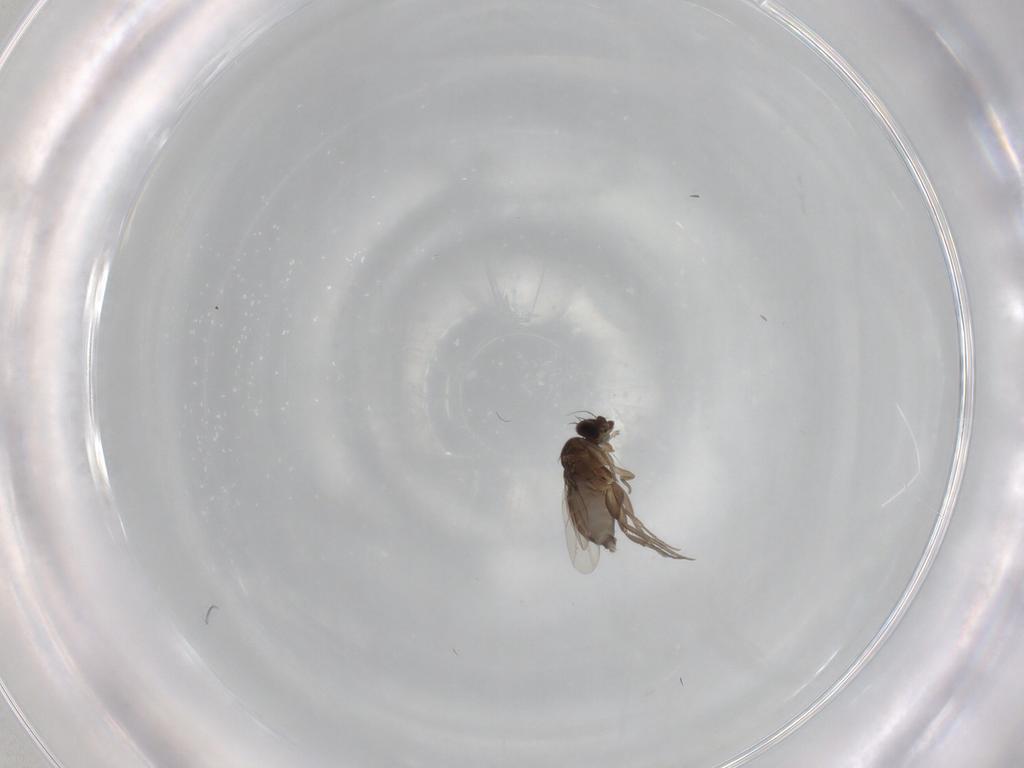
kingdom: Animalia
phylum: Arthropoda
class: Insecta
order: Diptera
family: Phoridae
